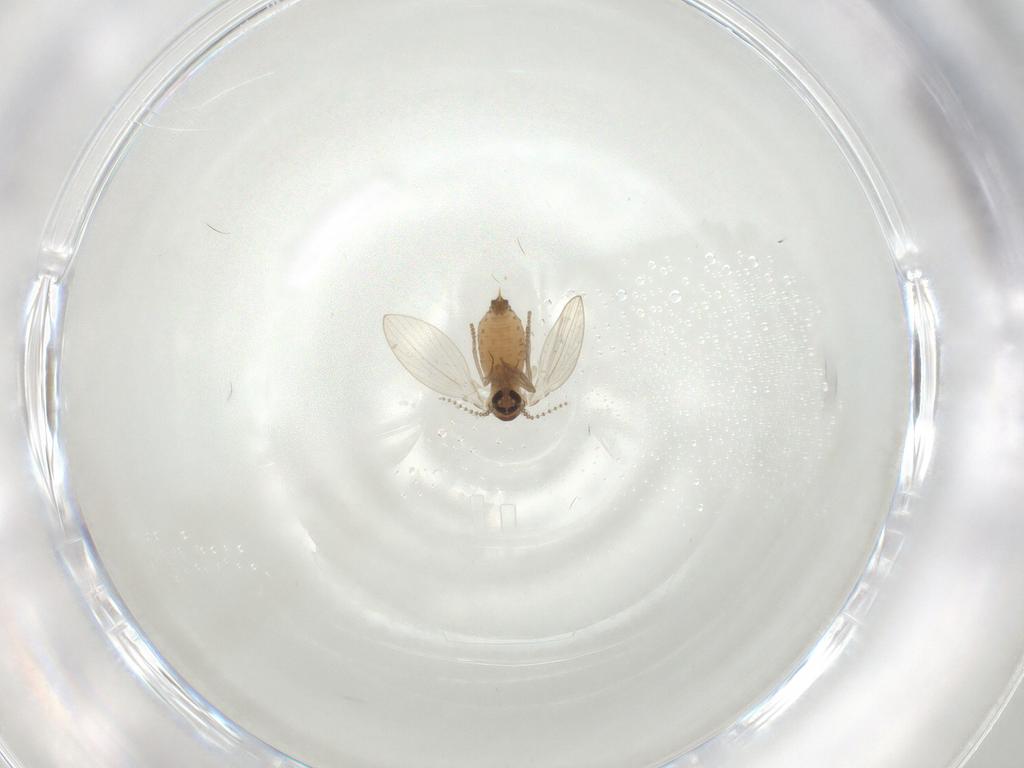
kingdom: Animalia
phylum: Arthropoda
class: Insecta
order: Diptera
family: Psychodidae
